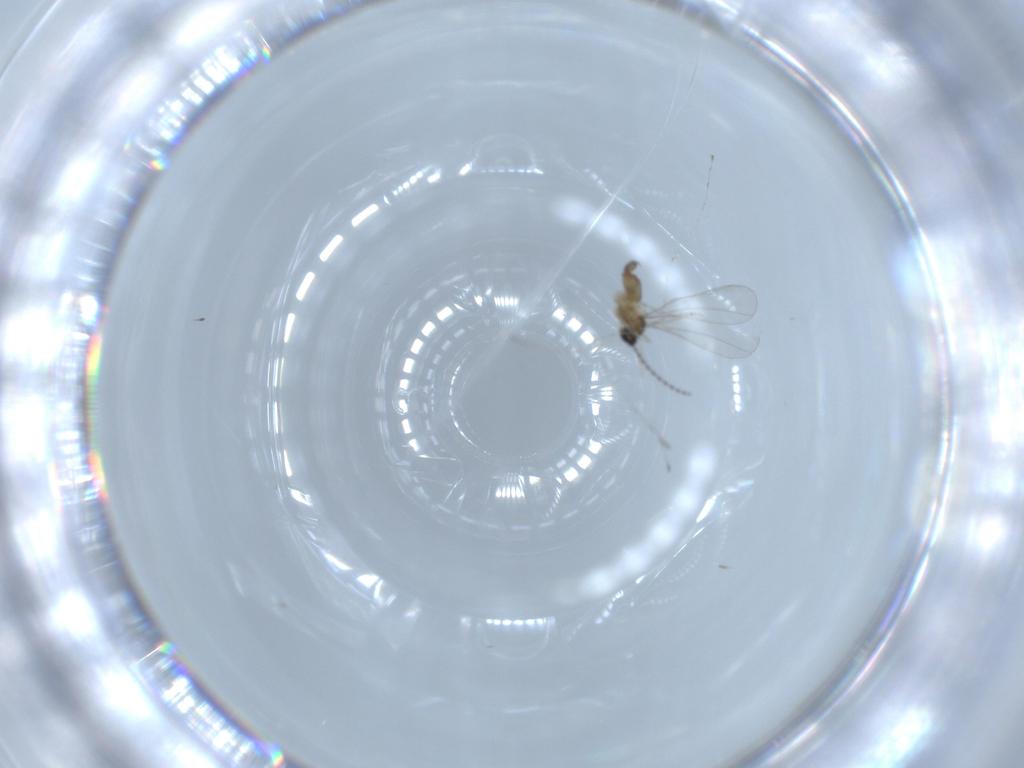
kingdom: Animalia
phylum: Arthropoda
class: Insecta
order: Diptera
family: Cecidomyiidae
